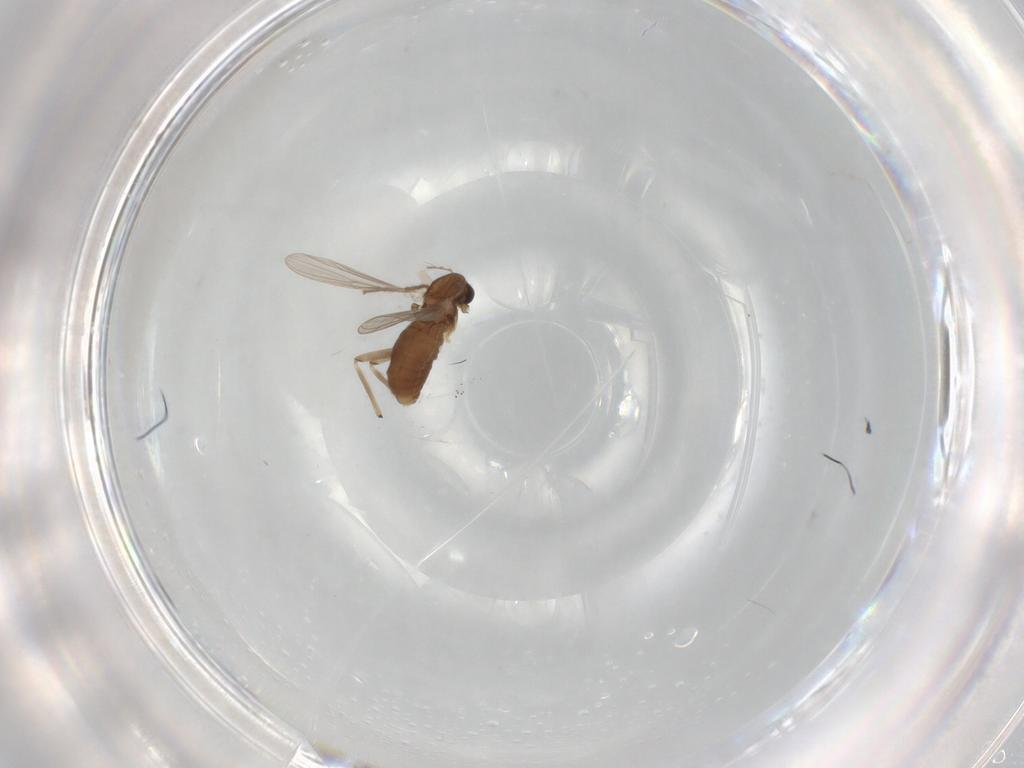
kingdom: Animalia
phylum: Arthropoda
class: Insecta
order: Diptera
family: Chironomidae
